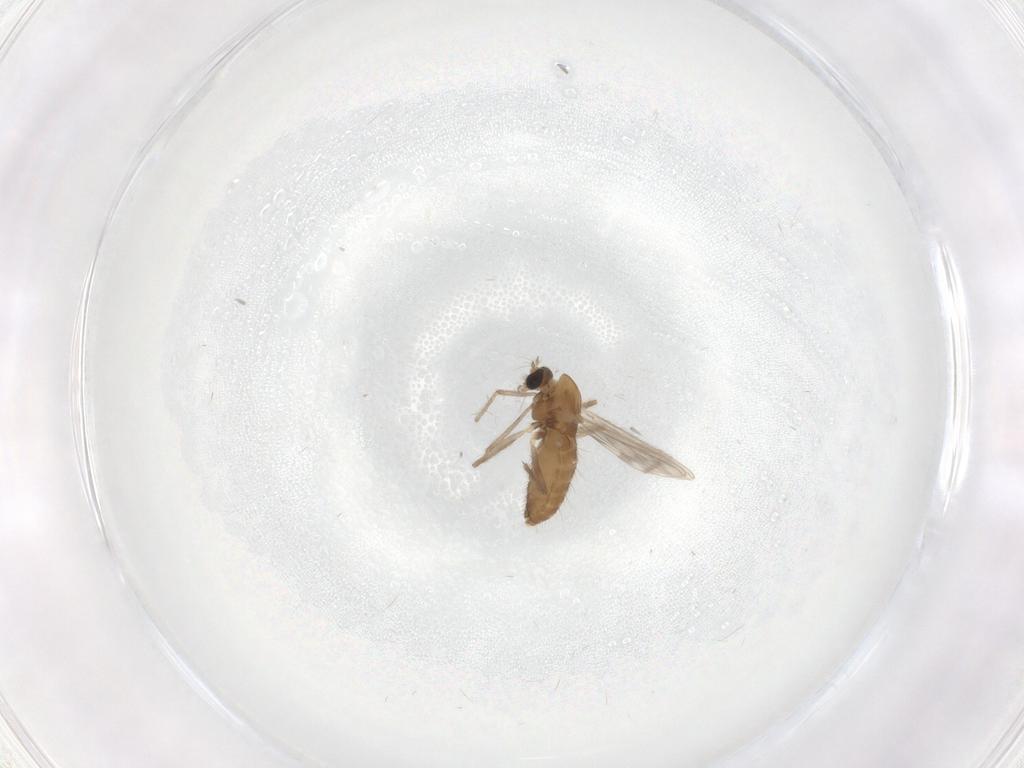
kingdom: Animalia
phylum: Arthropoda
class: Insecta
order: Diptera
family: Chironomidae
